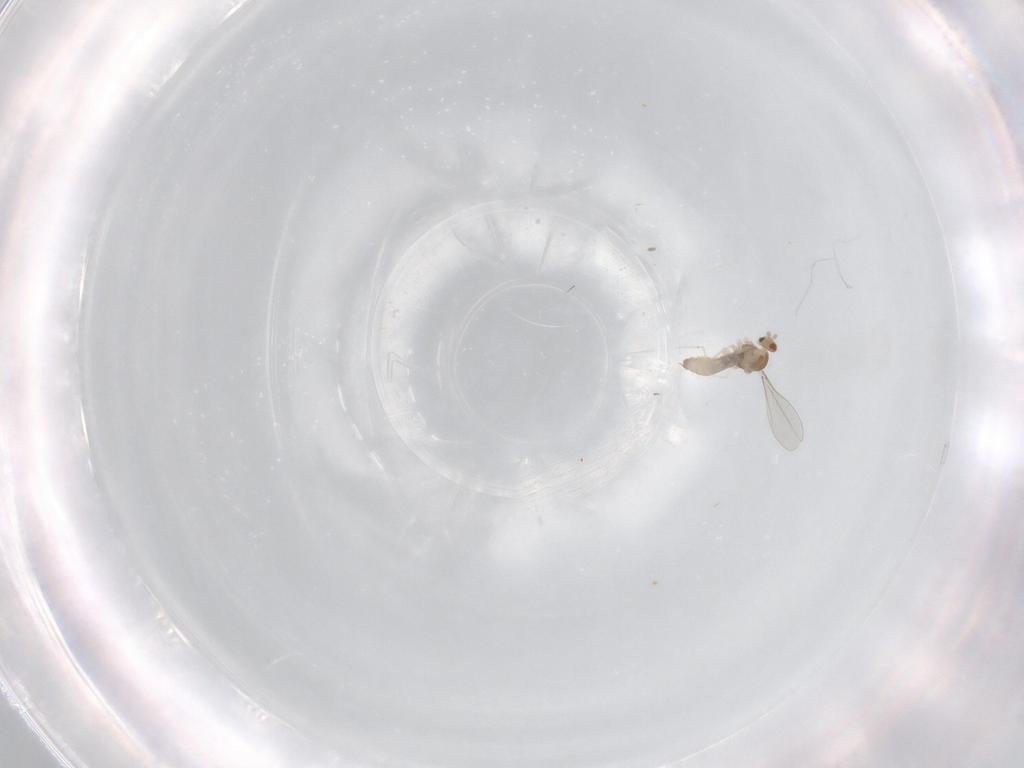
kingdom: Animalia
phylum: Arthropoda
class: Insecta
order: Diptera
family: Cecidomyiidae
